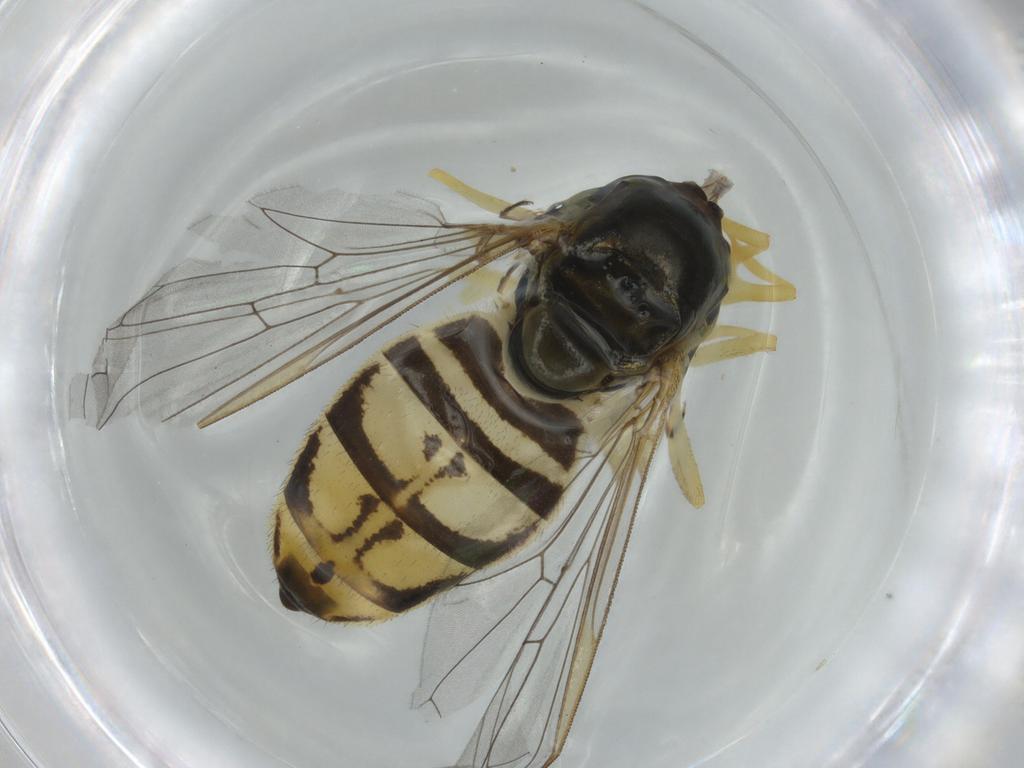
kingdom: Animalia
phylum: Arthropoda
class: Insecta
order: Diptera
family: Syrphidae
